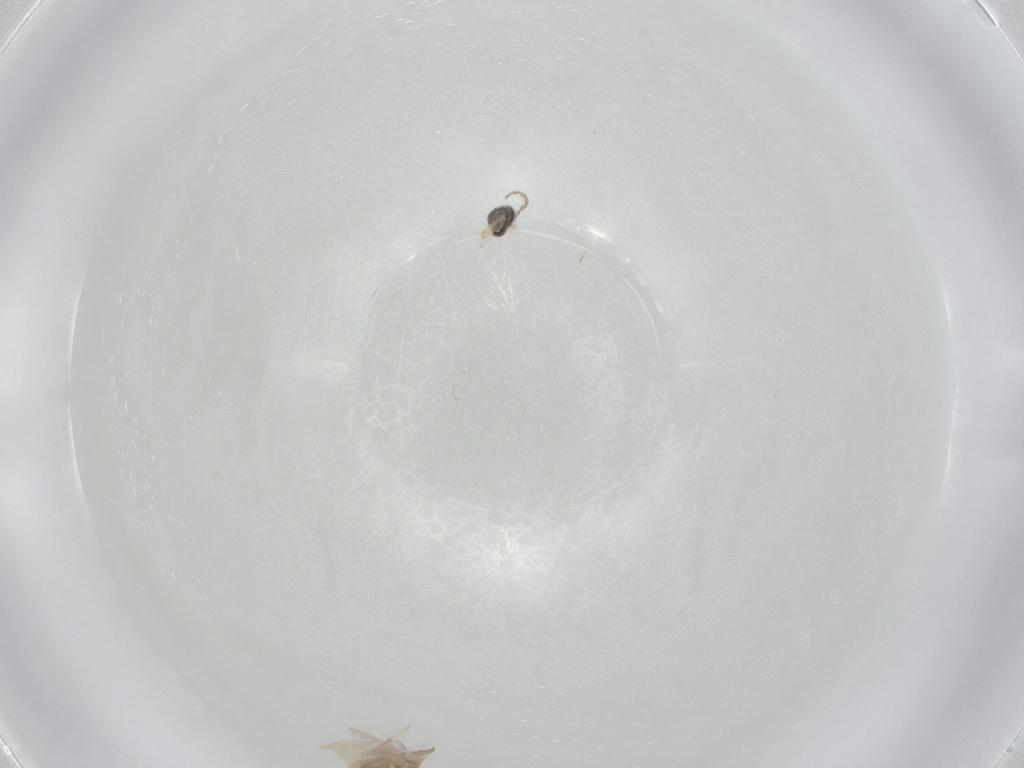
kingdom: Animalia
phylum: Arthropoda
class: Insecta
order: Diptera
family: Cecidomyiidae
